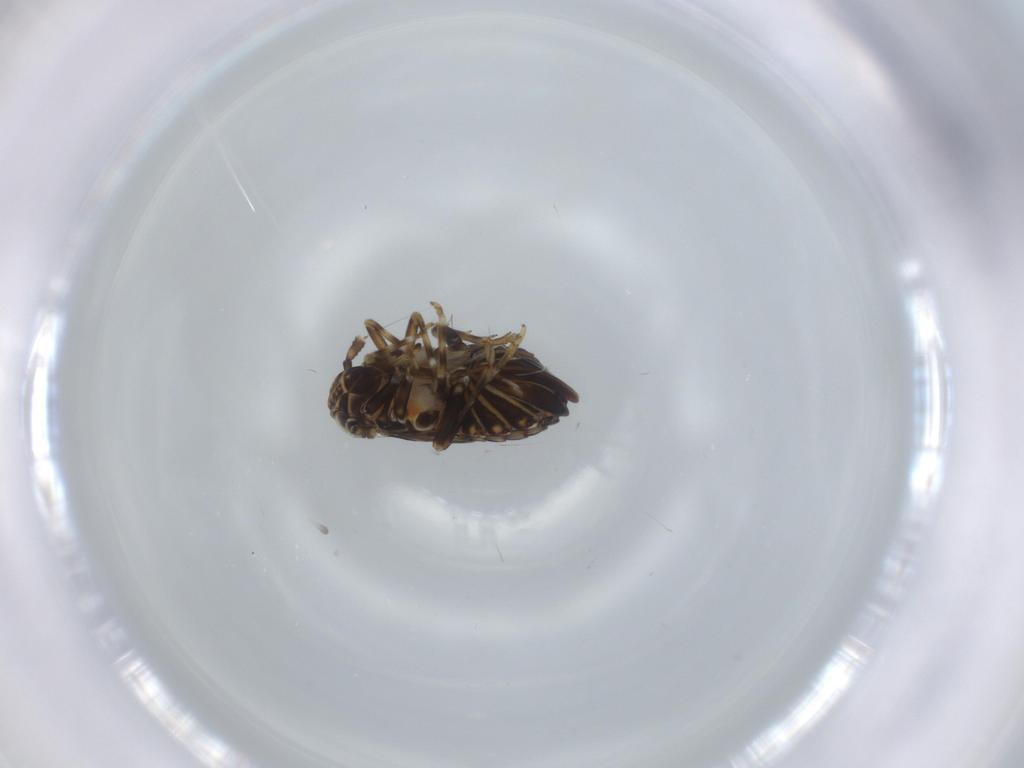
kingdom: Animalia
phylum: Arthropoda
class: Insecta
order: Hemiptera
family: Delphacidae
